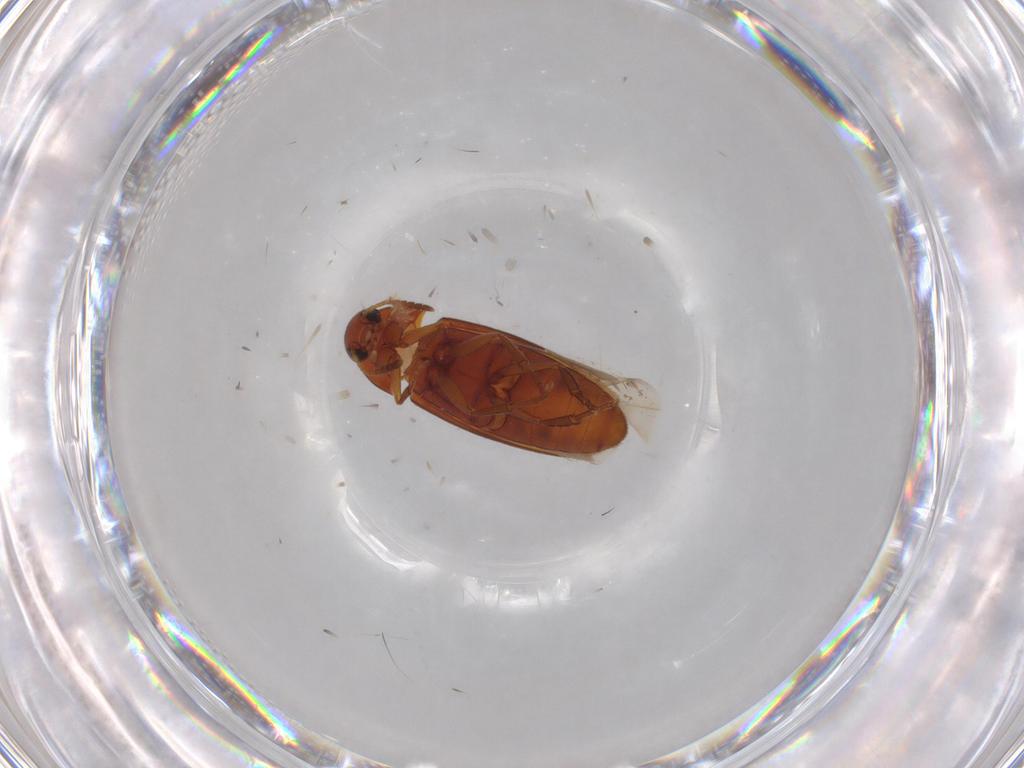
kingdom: Animalia
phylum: Arthropoda
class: Insecta
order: Coleoptera
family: Scraptiidae
